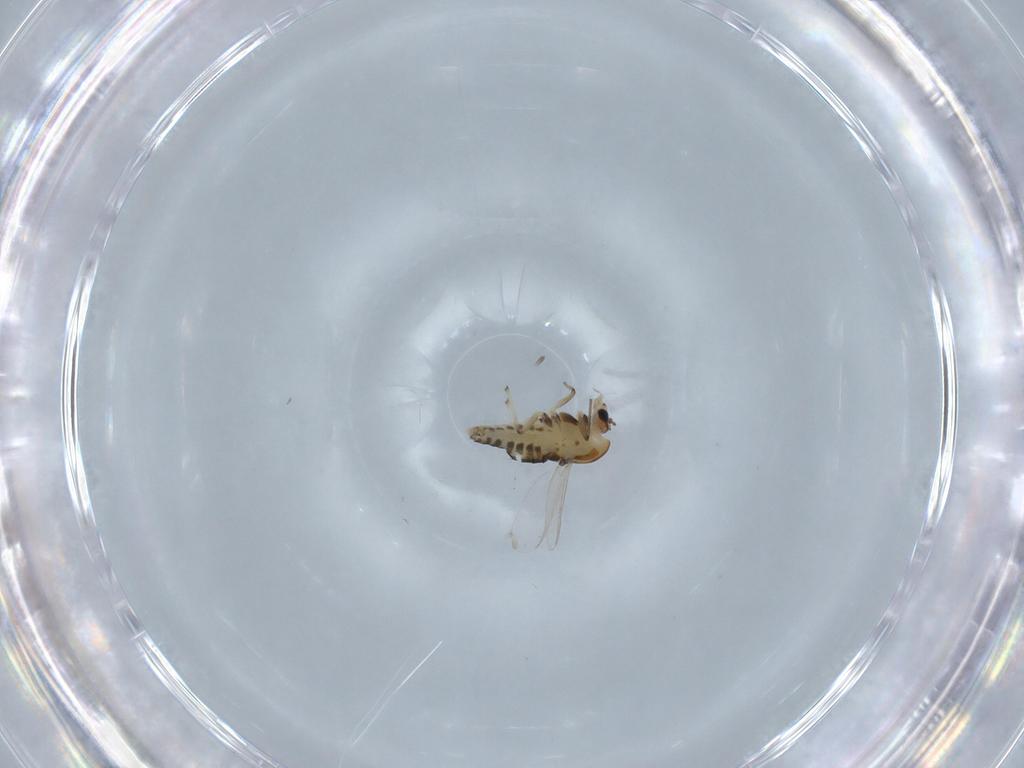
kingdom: Animalia
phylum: Arthropoda
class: Insecta
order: Diptera
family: Chironomidae
